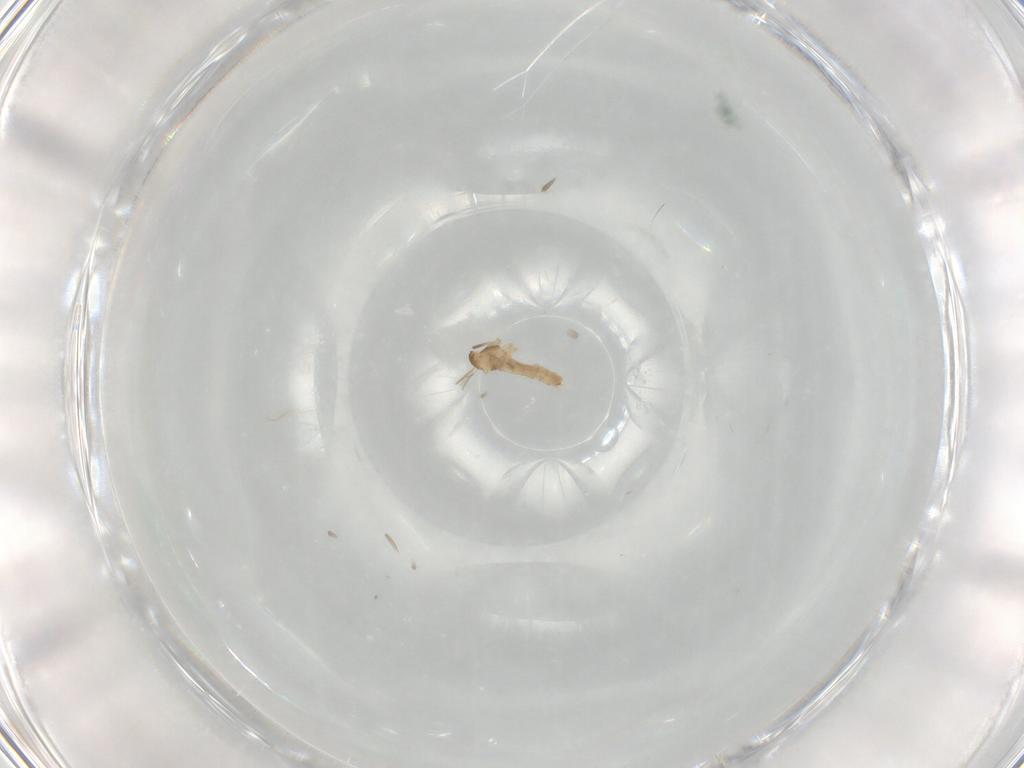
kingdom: Animalia
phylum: Arthropoda
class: Insecta
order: Diptera
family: Cecidomyiidae
